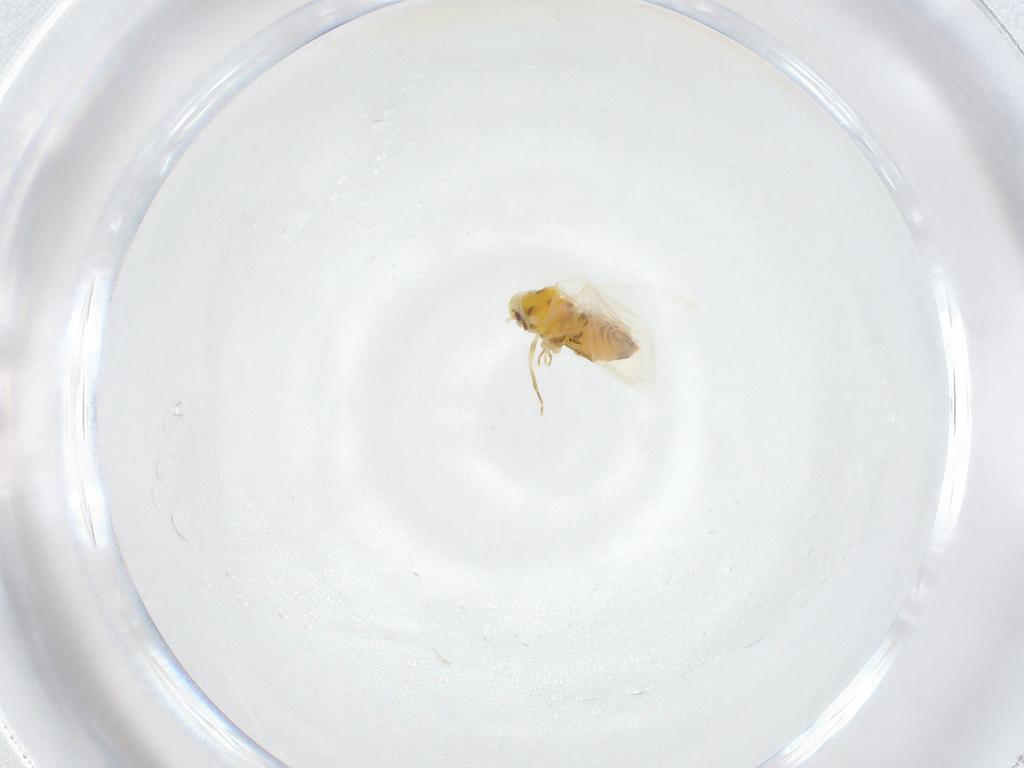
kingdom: Animalia
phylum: Arthropoda
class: Insecta
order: Hemiptera
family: Aleyrodidae
